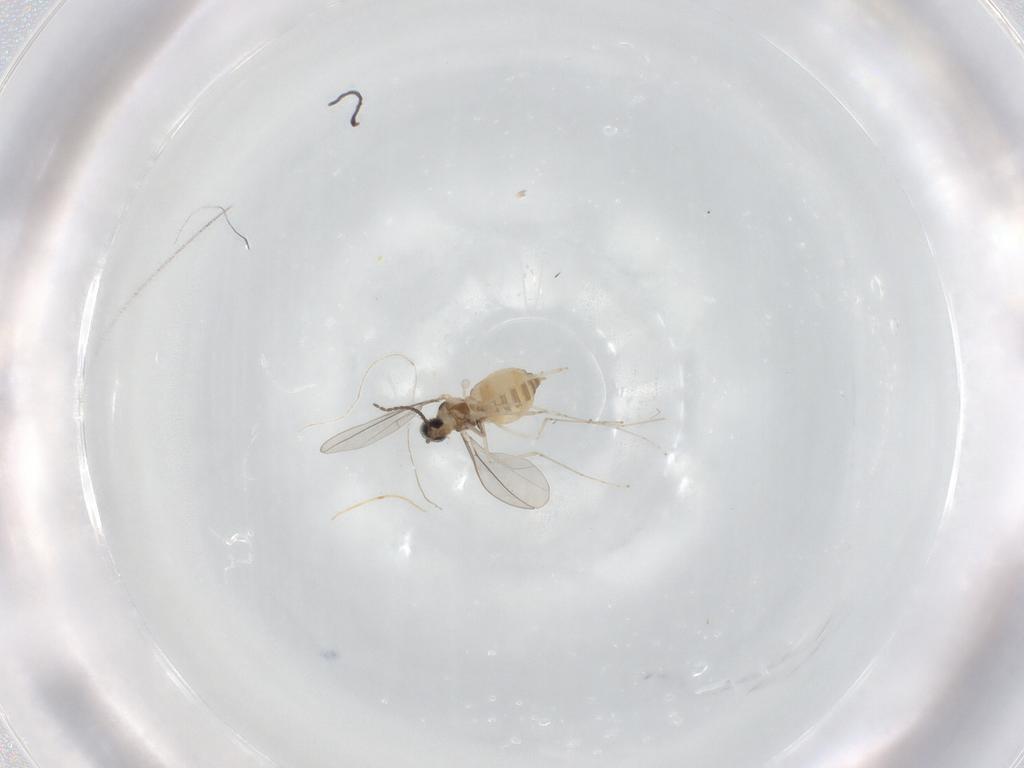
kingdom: Animalia
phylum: Arthropoda
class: Insecta
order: Diptera
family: Cecidomyiidae
